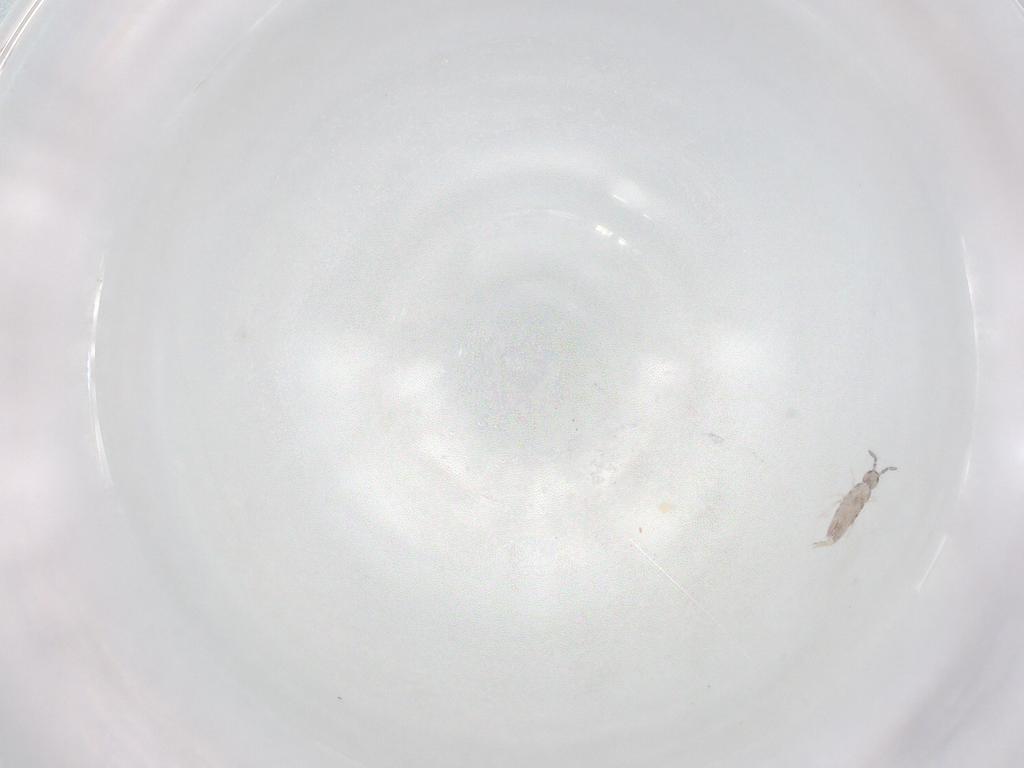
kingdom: Animalia
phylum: Arthropoda
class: Collembola
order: Entomobryomorpha
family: Entomobryidae
